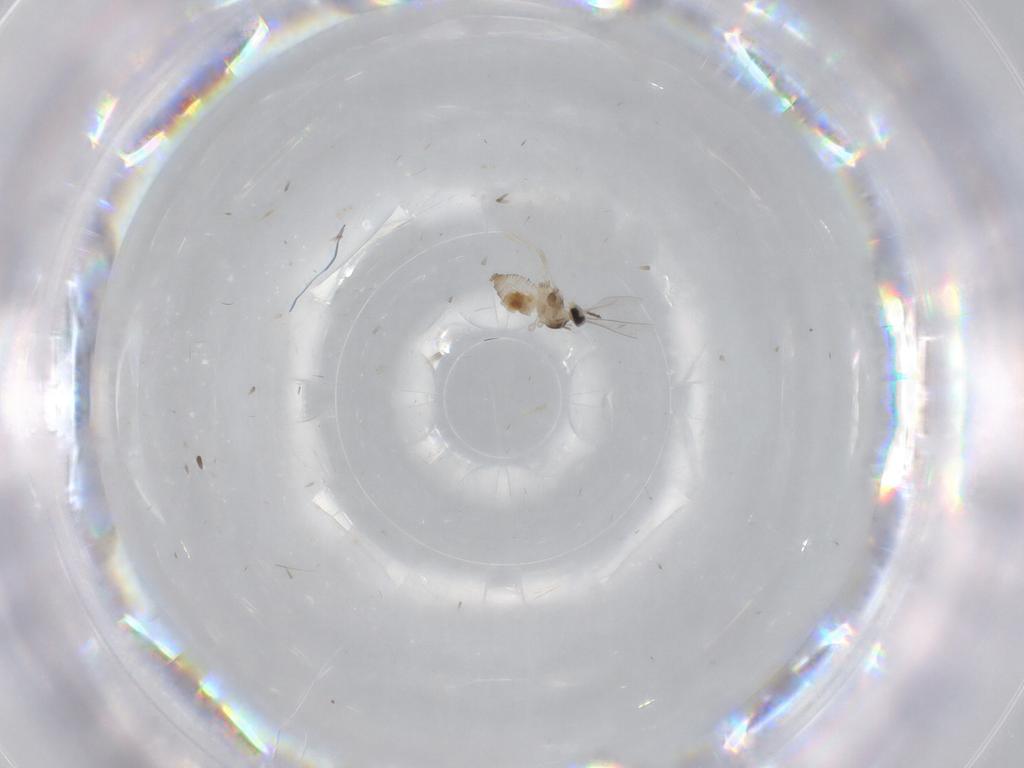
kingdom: Animalia
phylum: Arthropoda
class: Insecta
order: Diptera
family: Cecidomyiidae
